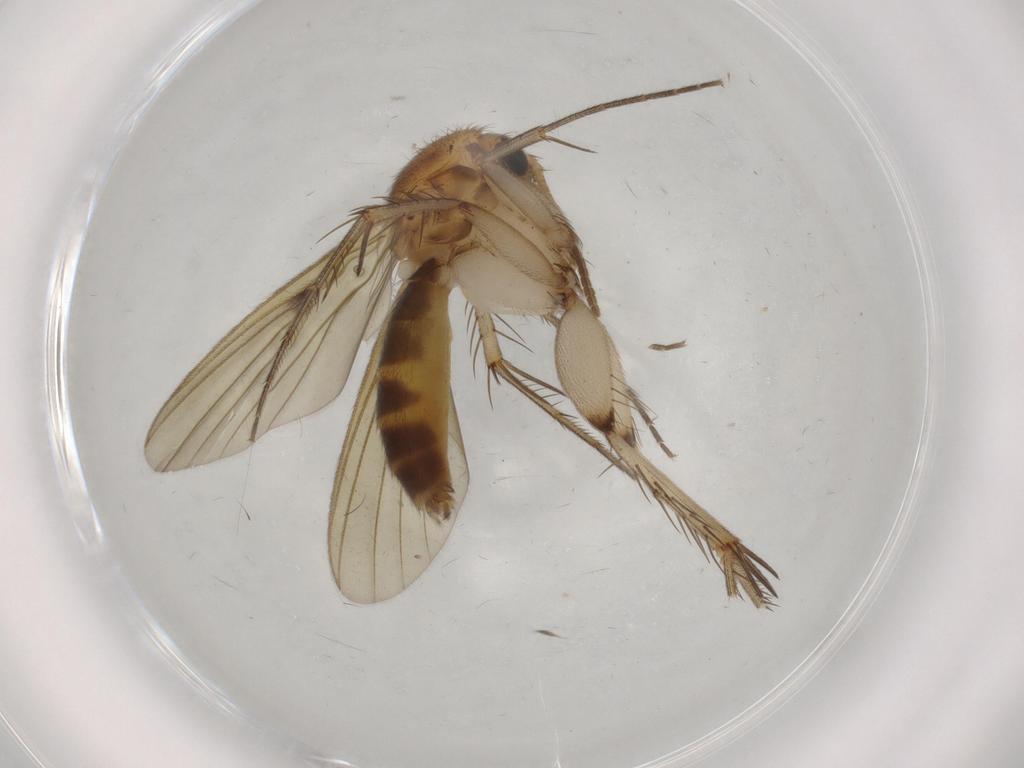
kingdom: Animalia
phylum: Arthropoda
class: Insecta
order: Diptera
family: Mycetophilidae
